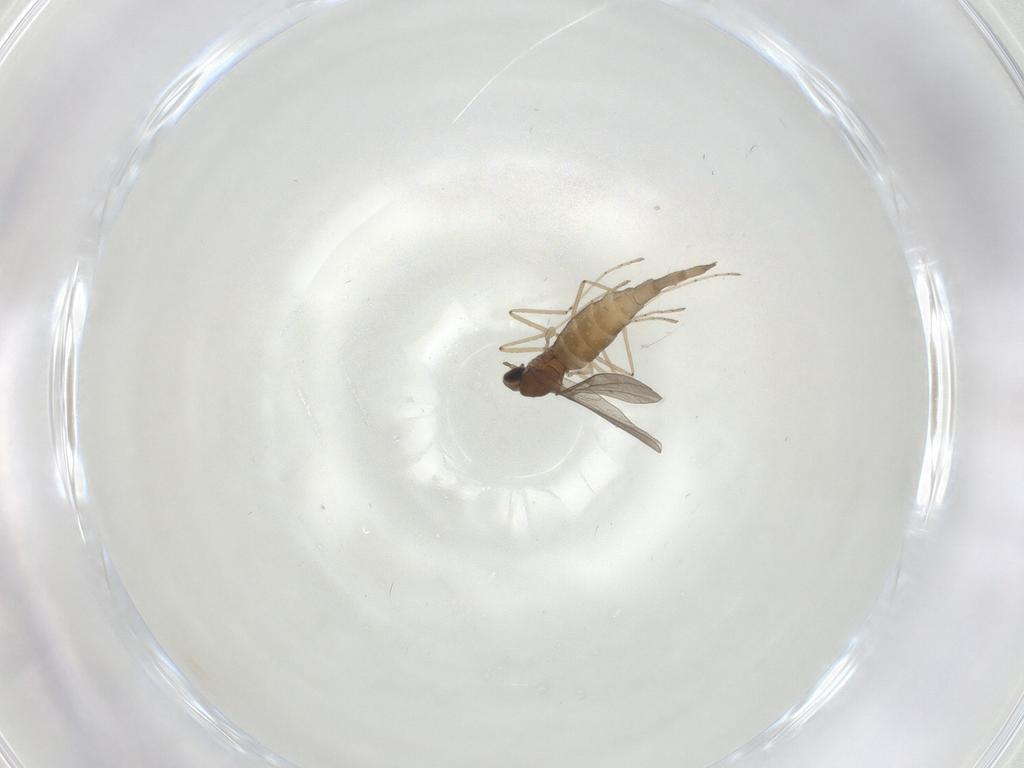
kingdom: Animalia
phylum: Arthropoda
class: Insecta
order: Diptera
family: Cecidomyiidae
